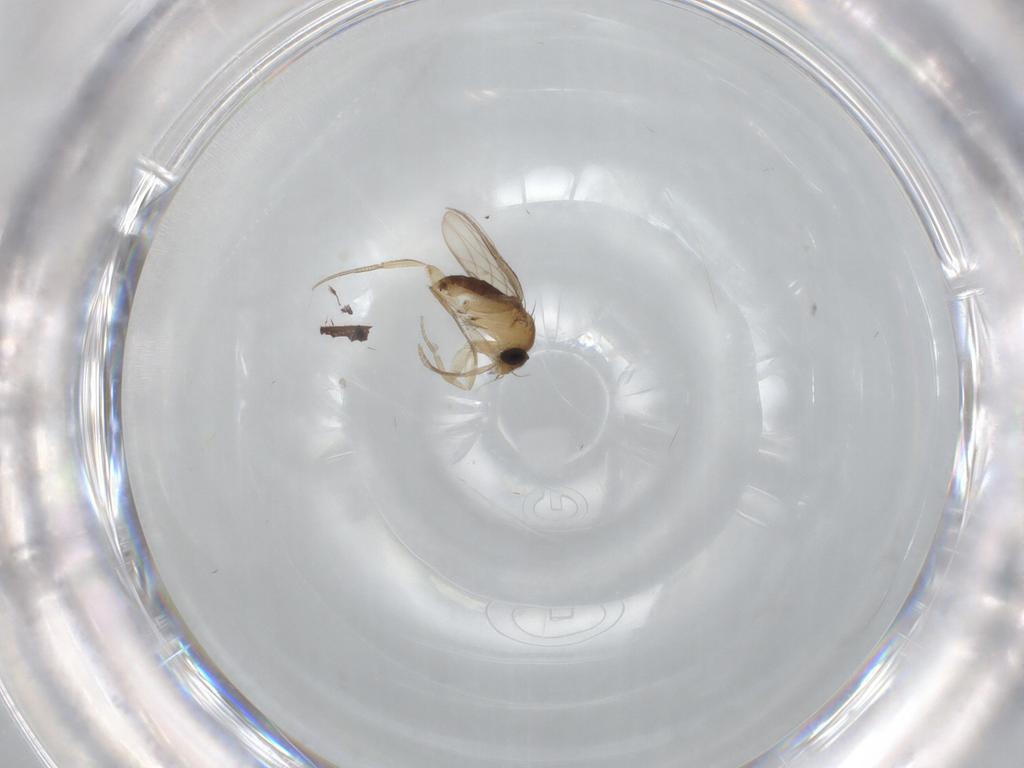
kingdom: Animalia
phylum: Arthropoda
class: Insecta
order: Diptera
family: Phoridae
